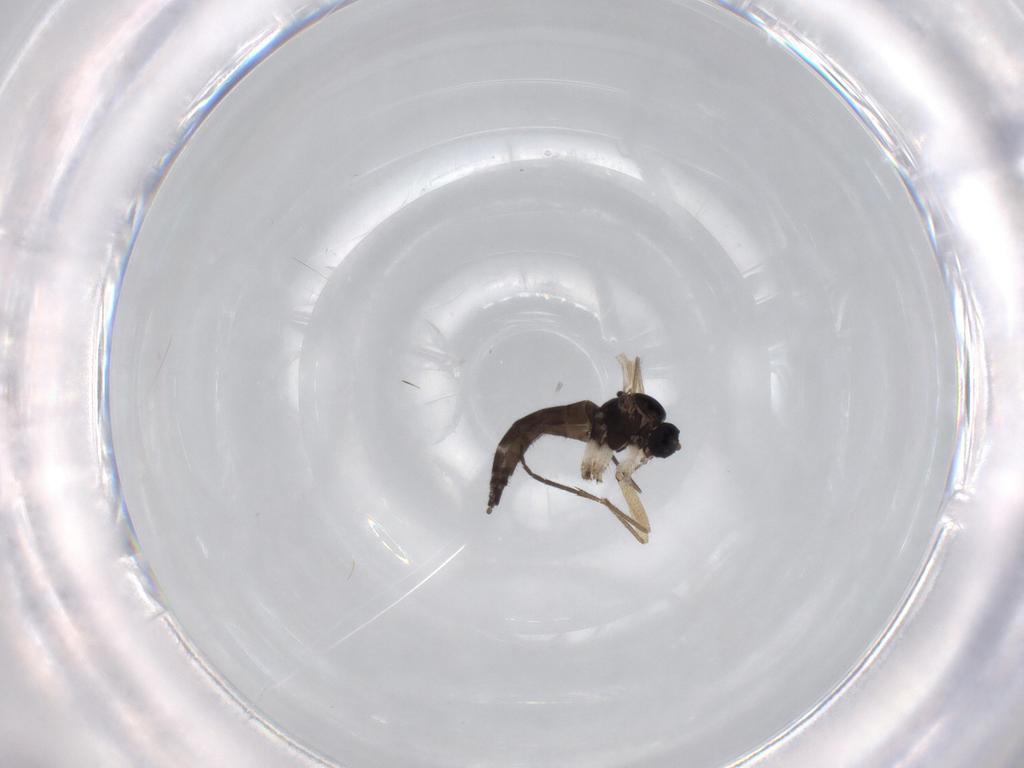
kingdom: Animalia
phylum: Arthropoda
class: Insecta
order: Diptera
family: Sciaridae
